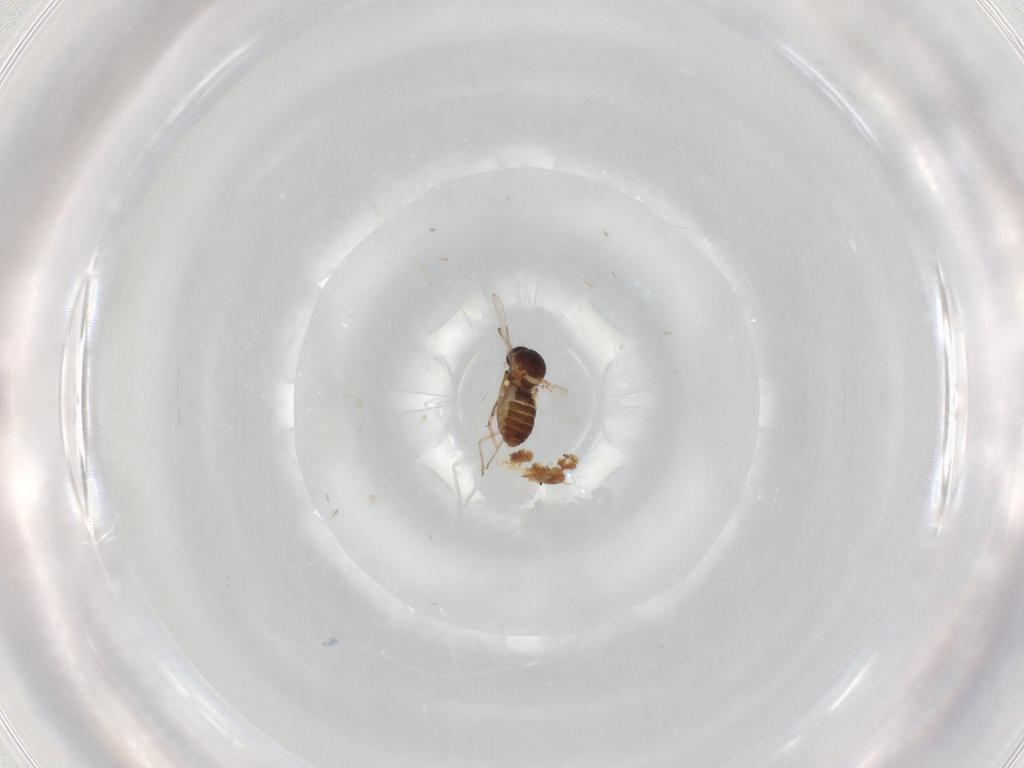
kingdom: Animalia
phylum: Arthropoda
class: Insecta
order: Diptera
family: Ceratopogonidae
